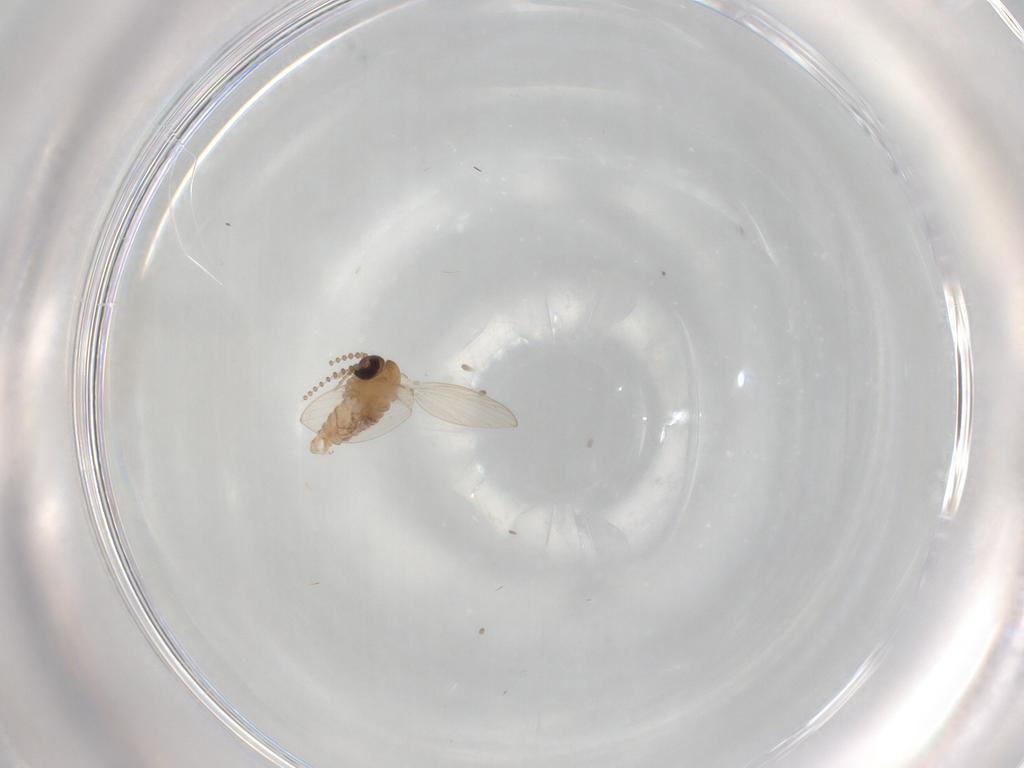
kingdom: Animalia
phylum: Arthropoda
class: Insecta
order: Diptera
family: Psychodidae
